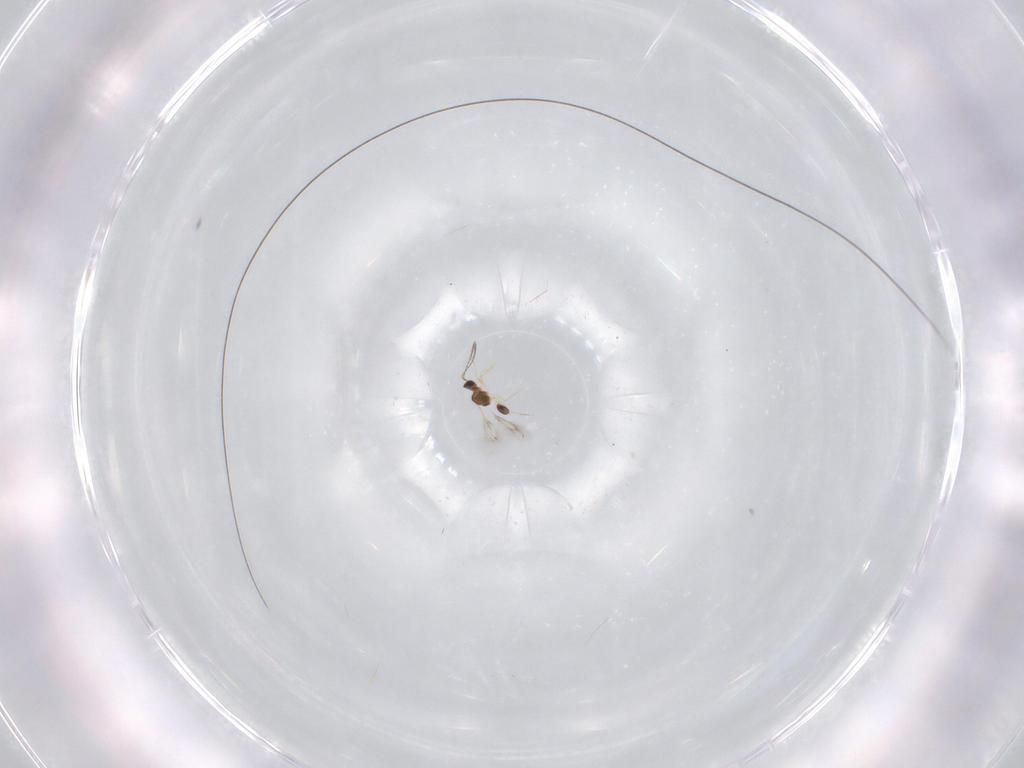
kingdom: Animalia
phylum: Arthropoda
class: Insecta
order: Hymenoptera
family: Mymarommatidae
